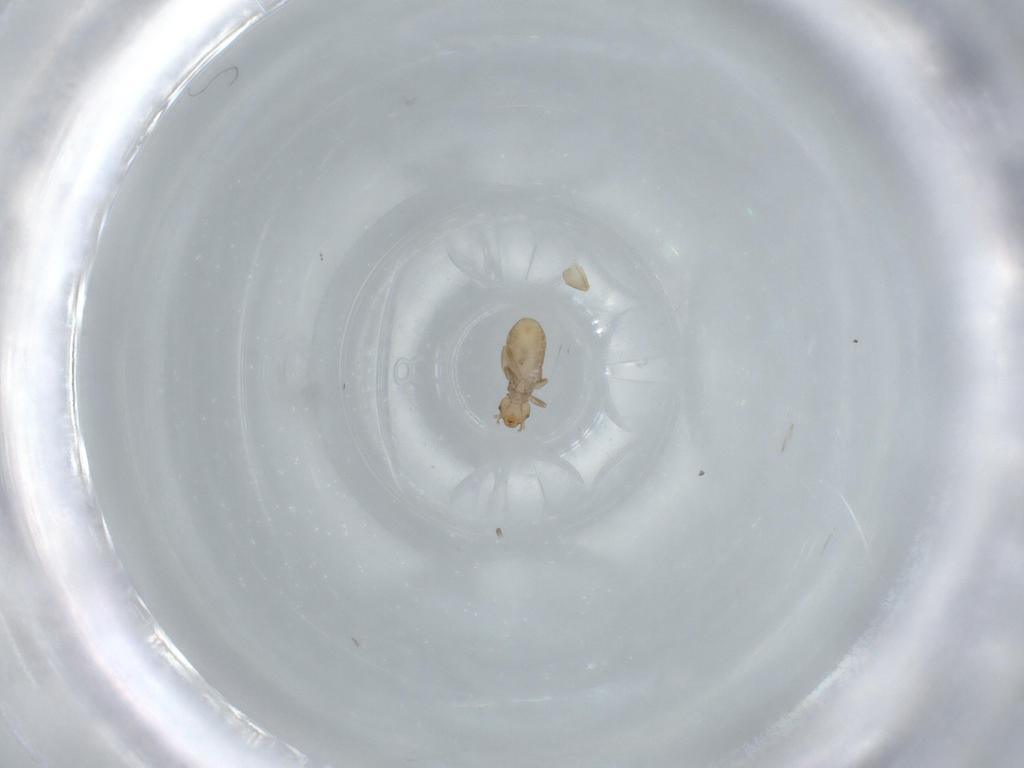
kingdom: Animalia
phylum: Arthropoda
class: Insecta
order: Psocodea
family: Liposcelididae
